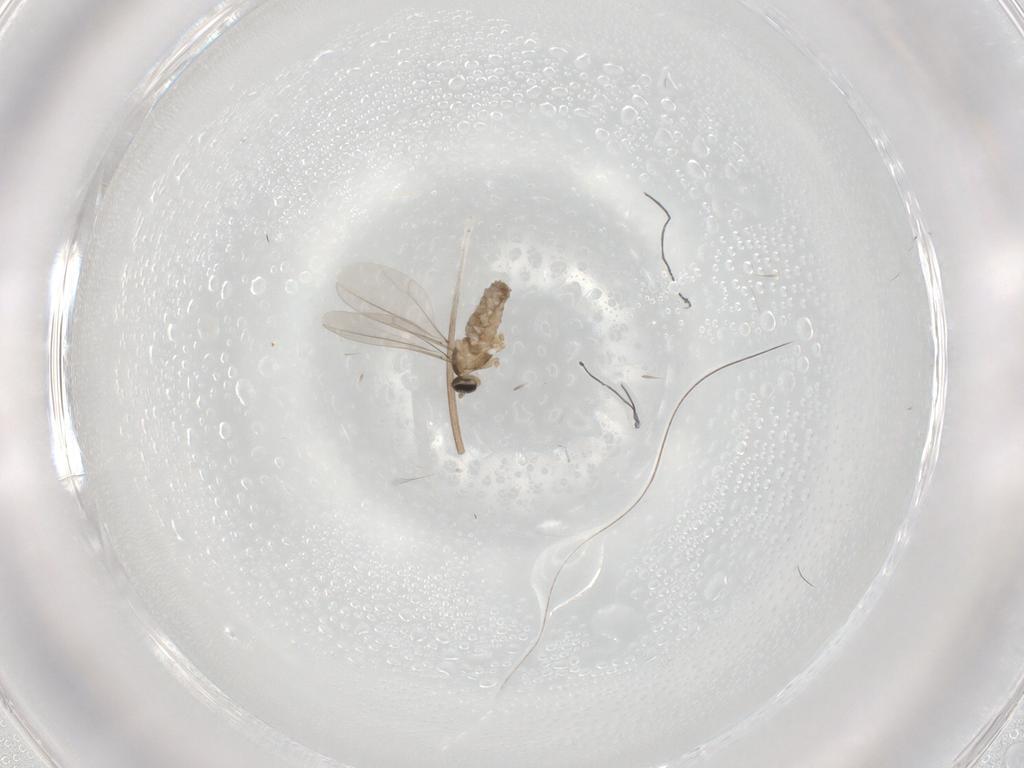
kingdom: Animalia
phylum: Arthropoda
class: Insecta
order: Diptera
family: Cecidomyiidae
